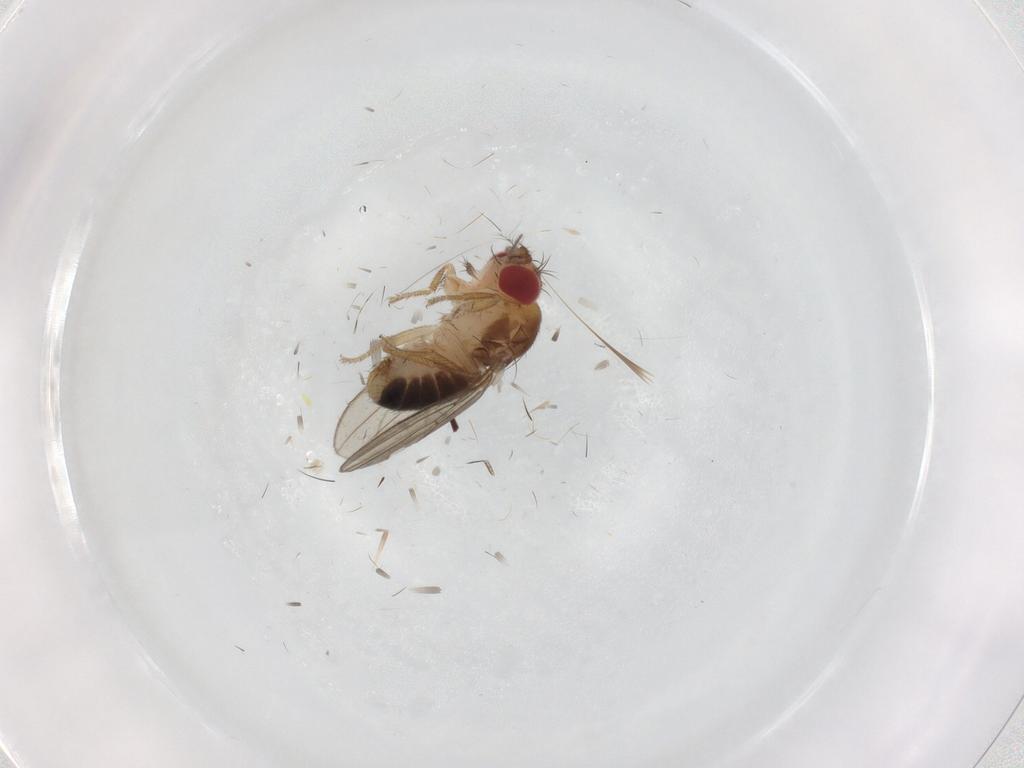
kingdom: Animalia
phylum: Arthropoda
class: Insecta
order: Diptera
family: Drosophilidae
